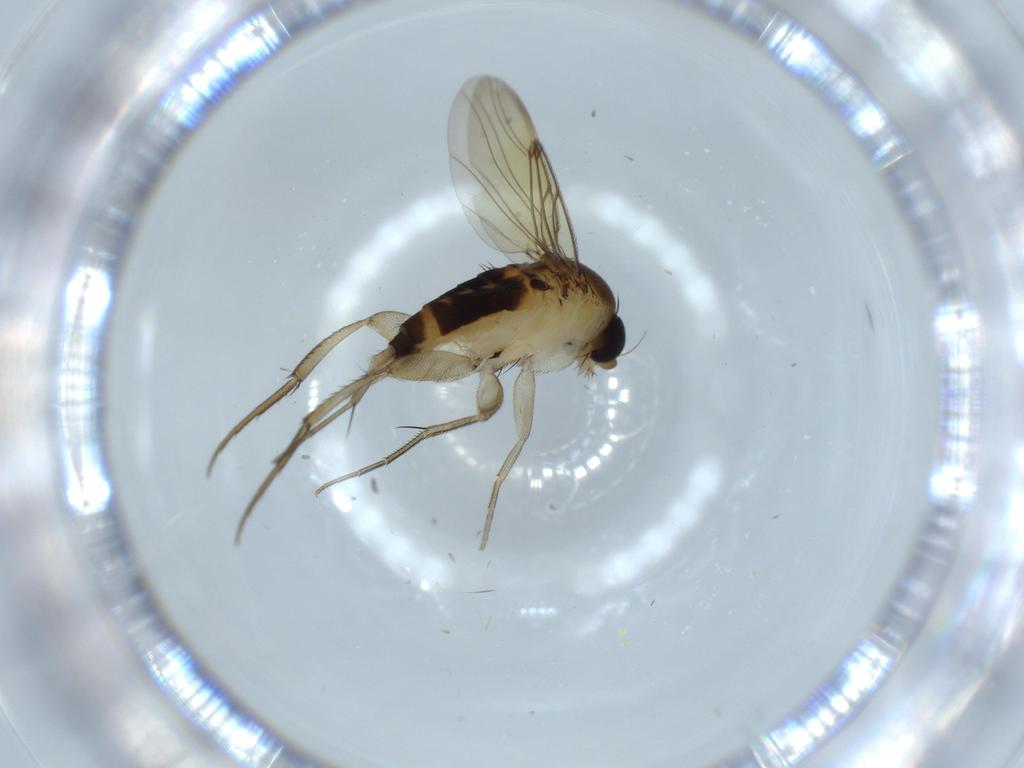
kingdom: Animalia
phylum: Arthropoda
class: Insecta
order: Diptera
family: Phoridae
